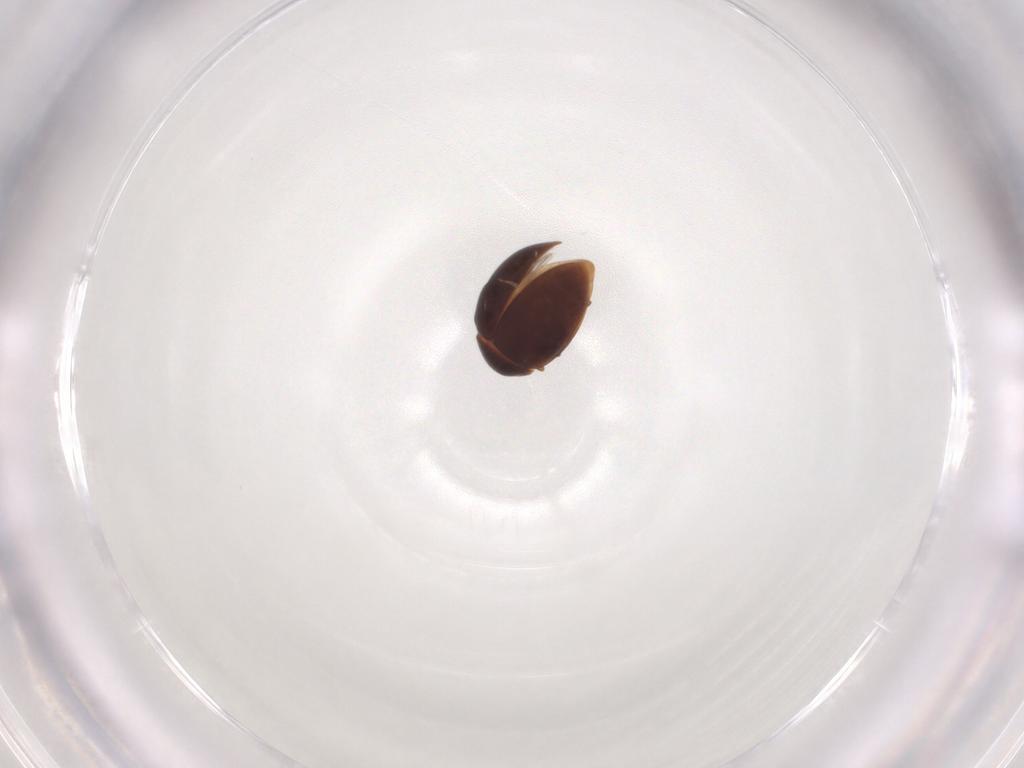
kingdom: Animalia
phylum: Arthropoda
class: Insecta
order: Coleoptera
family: Coccinellidae
